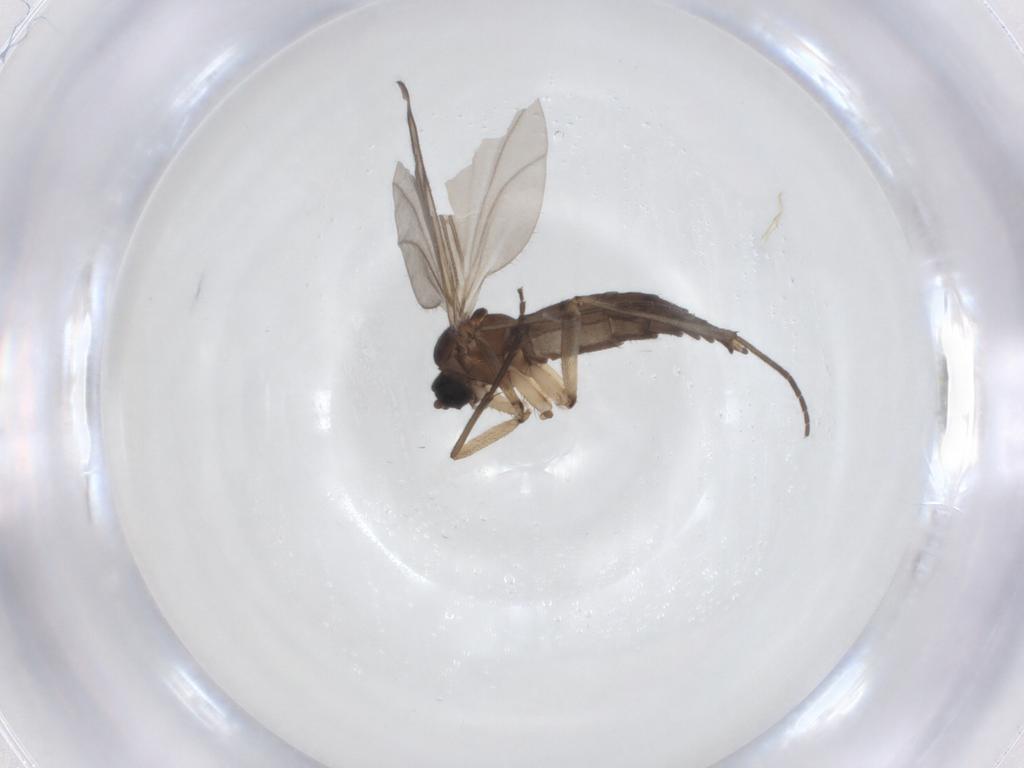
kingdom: Animalia
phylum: Arthropoda
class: Insecta
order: Diptera
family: Sciaridae
